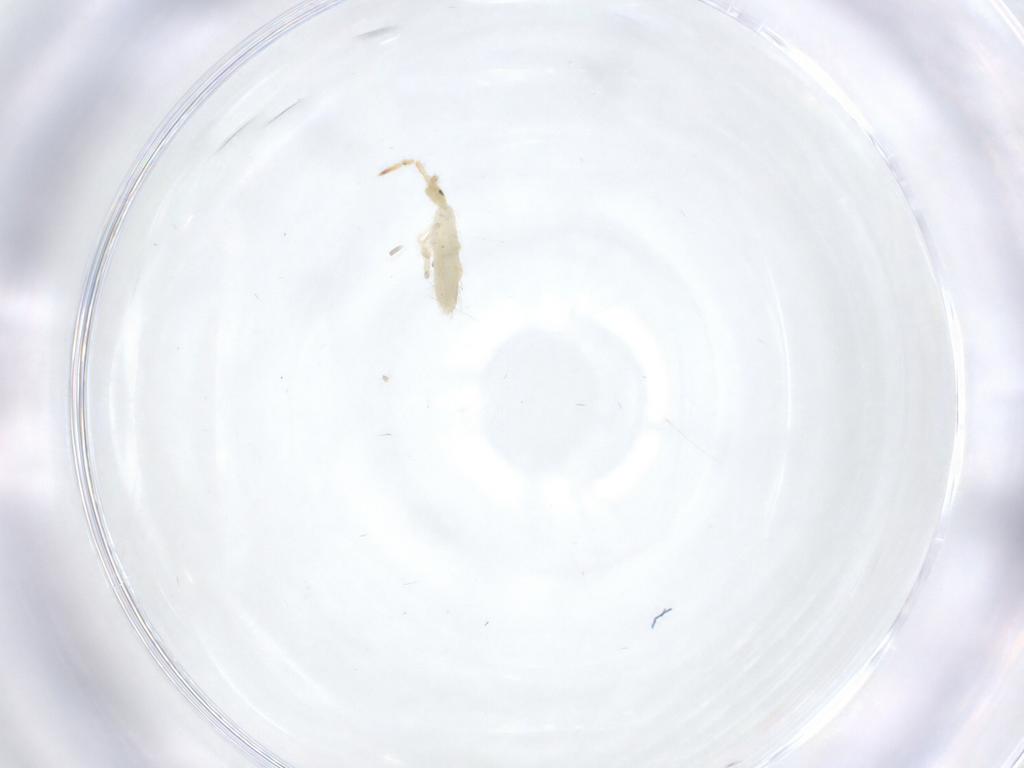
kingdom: Animalia
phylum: Arthropoda
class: Collembola
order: Entomobryomorpha
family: Entomobryidae
